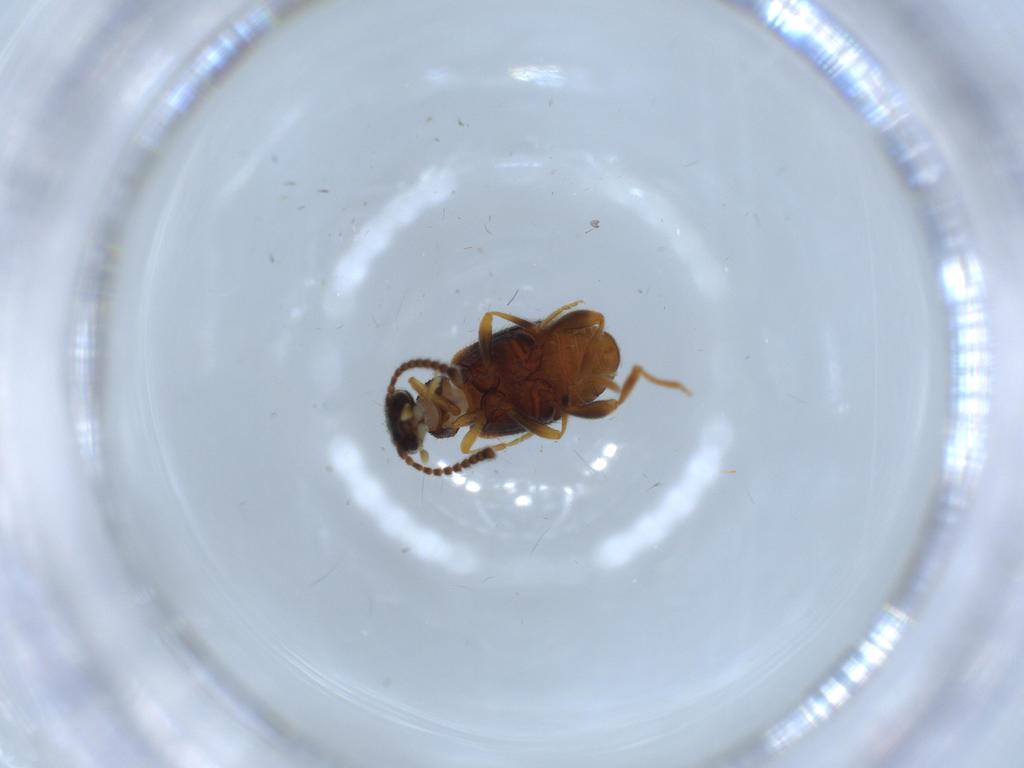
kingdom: Animalia
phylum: Arthropoda
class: Insecta
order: Coleoptera
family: Aderidae
